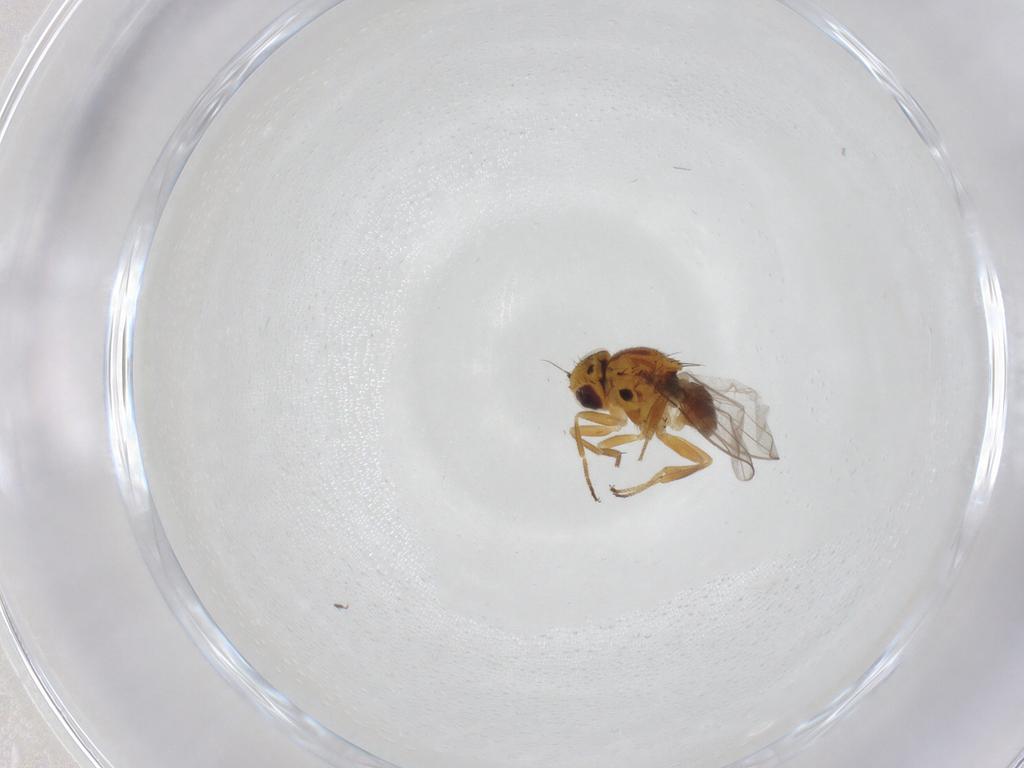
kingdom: Animalia
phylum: Arthropoda
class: Insecta
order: Diptera
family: Chloropidae
